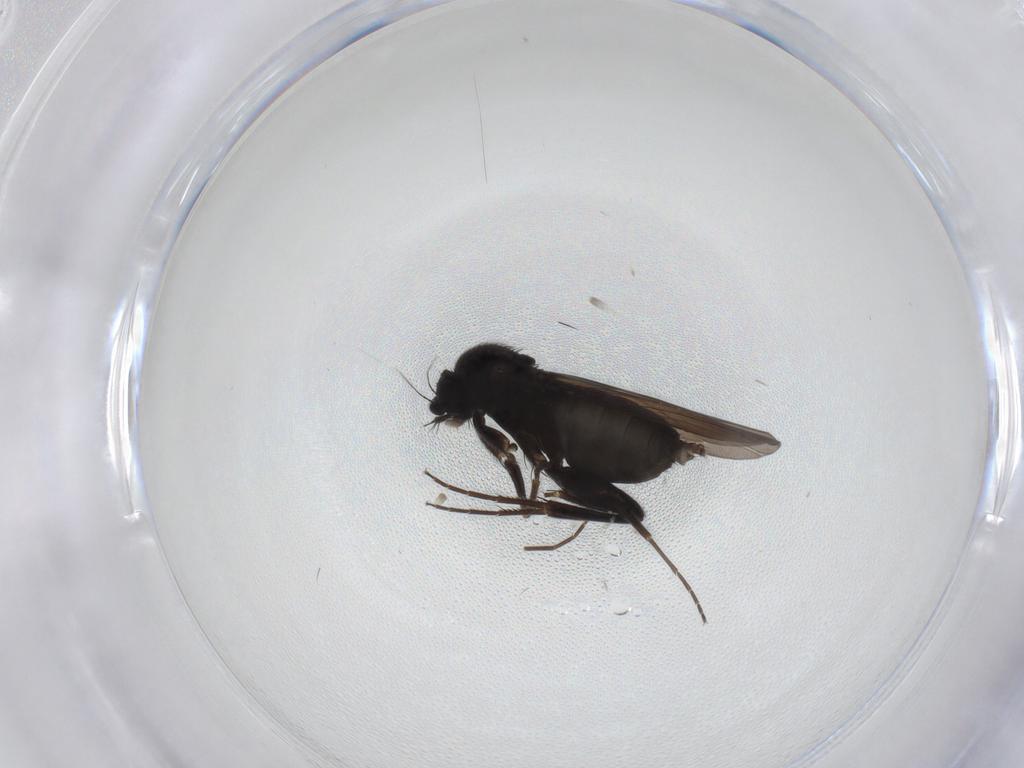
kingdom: Animalia
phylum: Arthropoda
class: Insecta
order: Diptera
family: Phoridae
